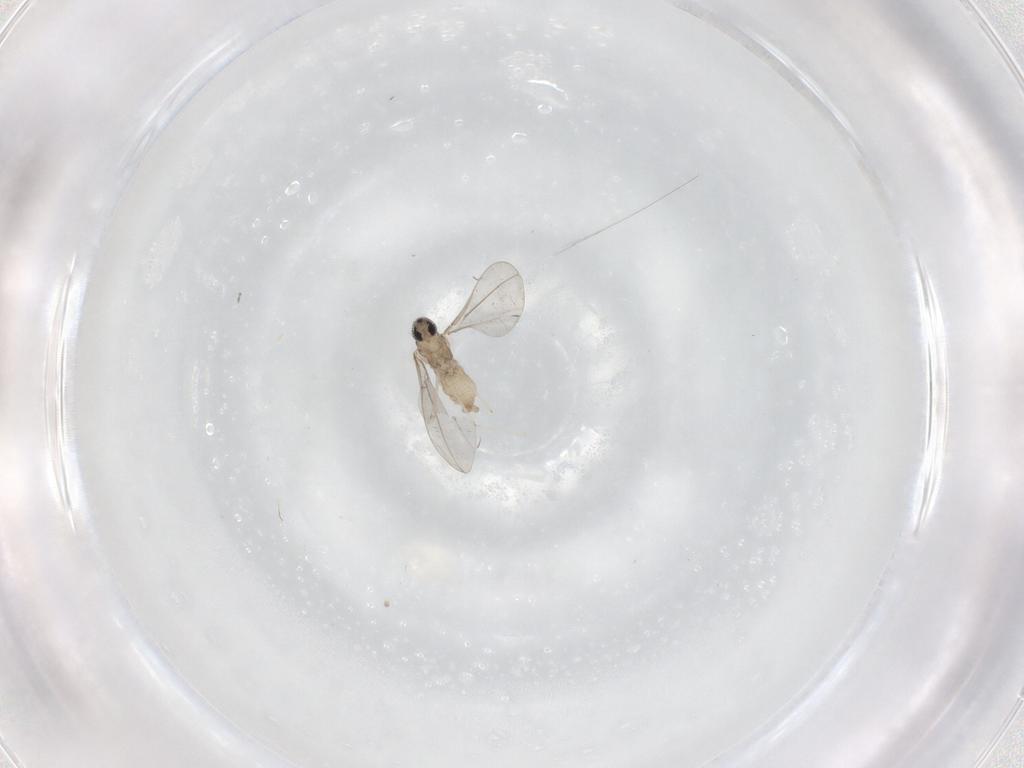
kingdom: Animalia
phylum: Arthropoda
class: Insecta
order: Diptera
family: Cecidomyiidae
